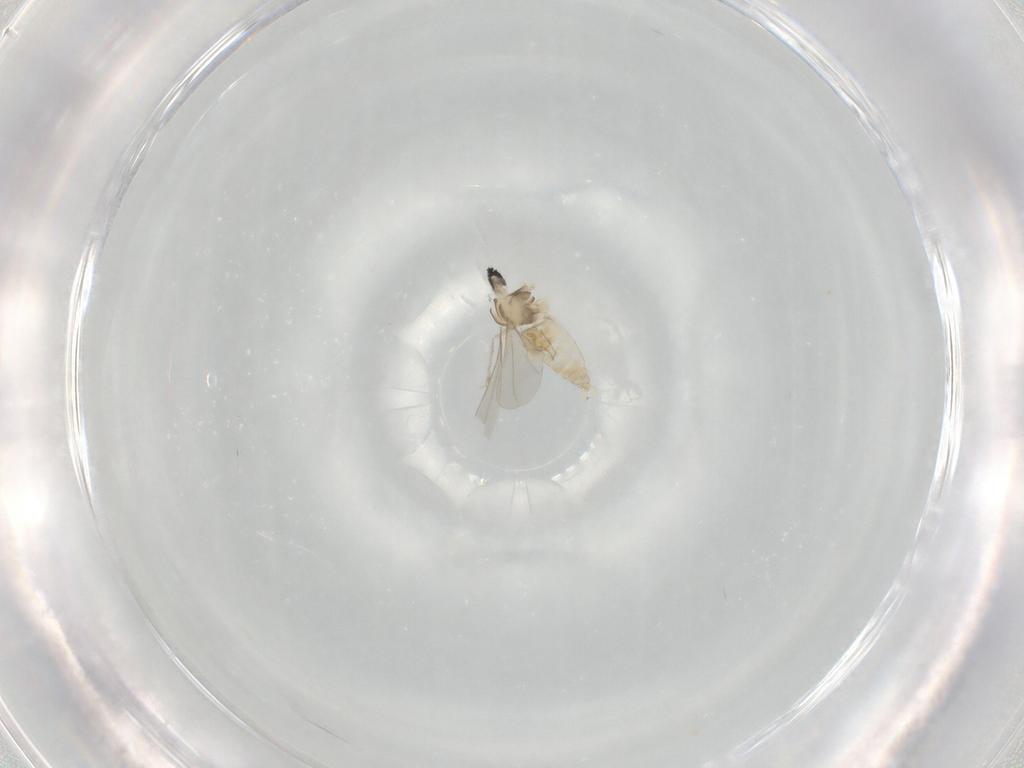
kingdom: Animalia
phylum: Arthropoda
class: Insecta
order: Diptera
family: Cecidomyiidae
